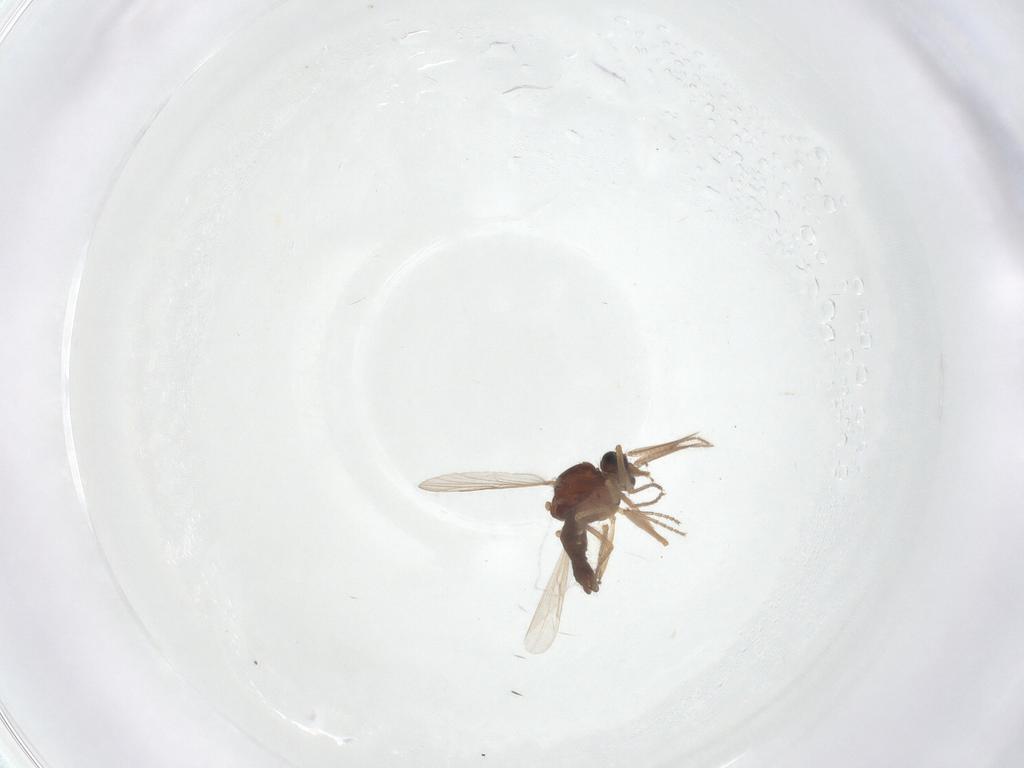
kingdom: Animalia
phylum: Arthropoda
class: Insecta
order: Diptera
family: Ceratopogonidae
